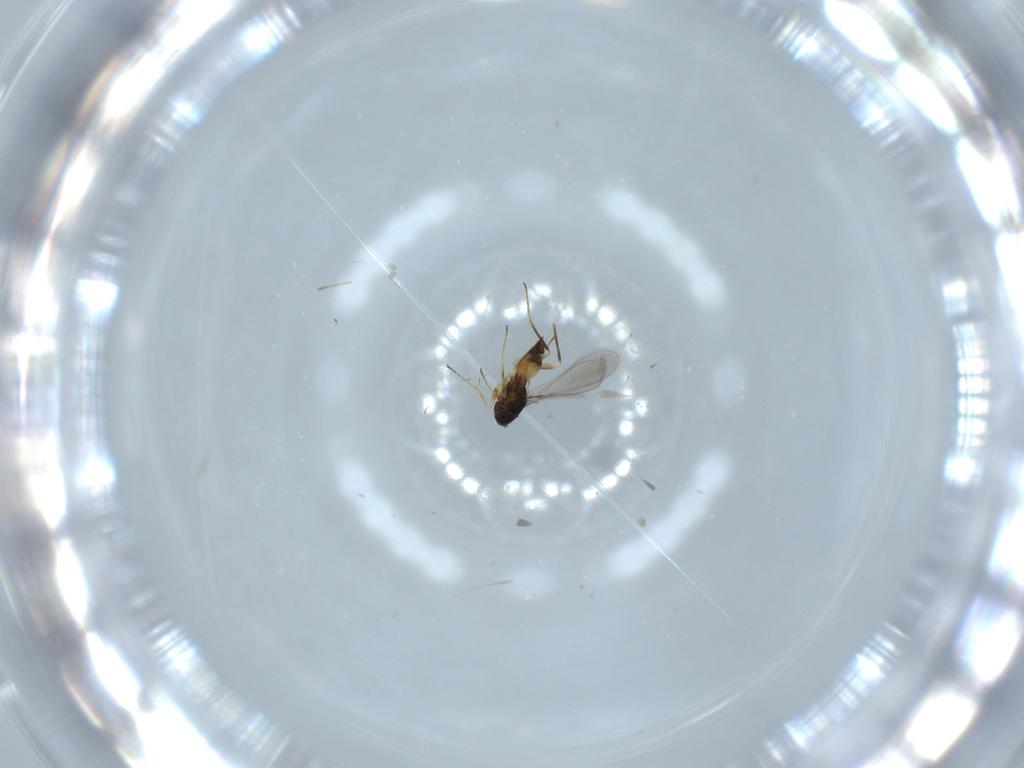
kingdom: Animalia
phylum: Arthropoda
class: Insecta
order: Hymenoptera
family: Mymaridae
